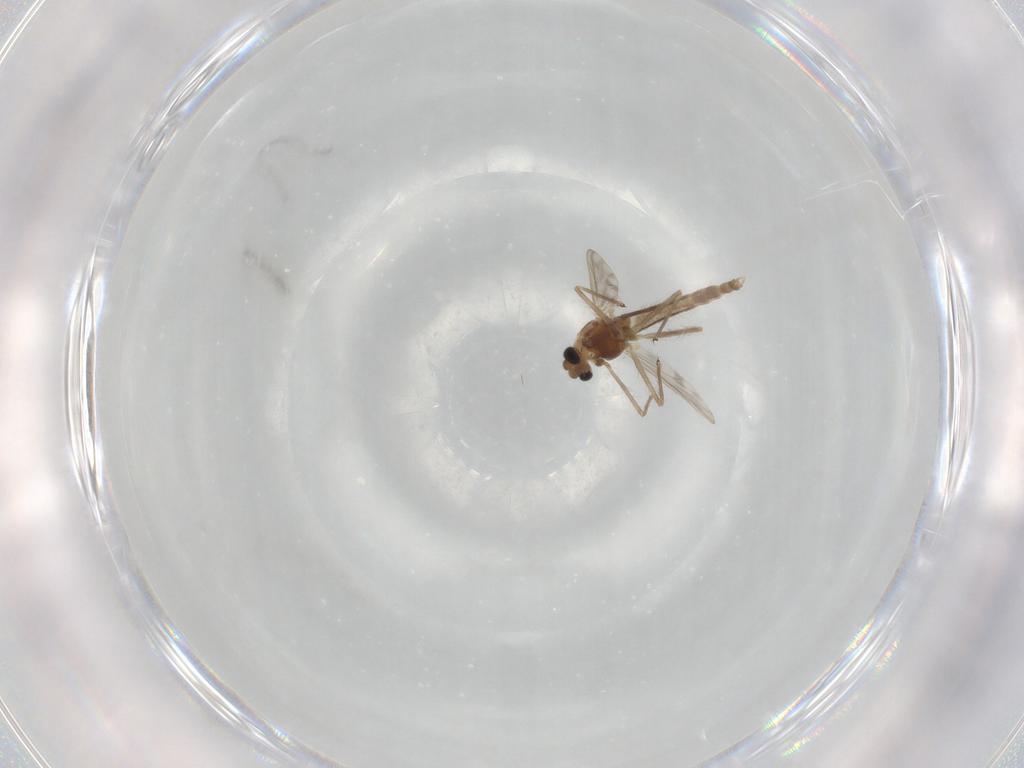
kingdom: Animalia
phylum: Arthropoda
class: Insecta
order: Diptera
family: Chironomidae
